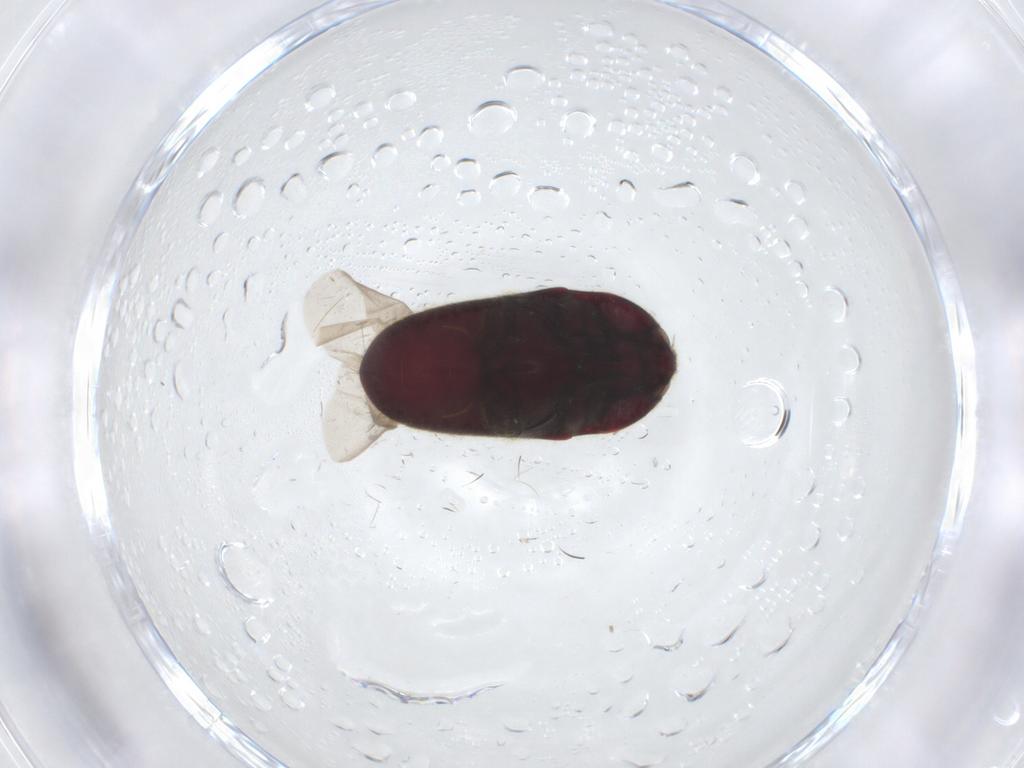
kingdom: Animalia
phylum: Arthropoda
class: Insecta
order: Coleoptera
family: Throscidae
